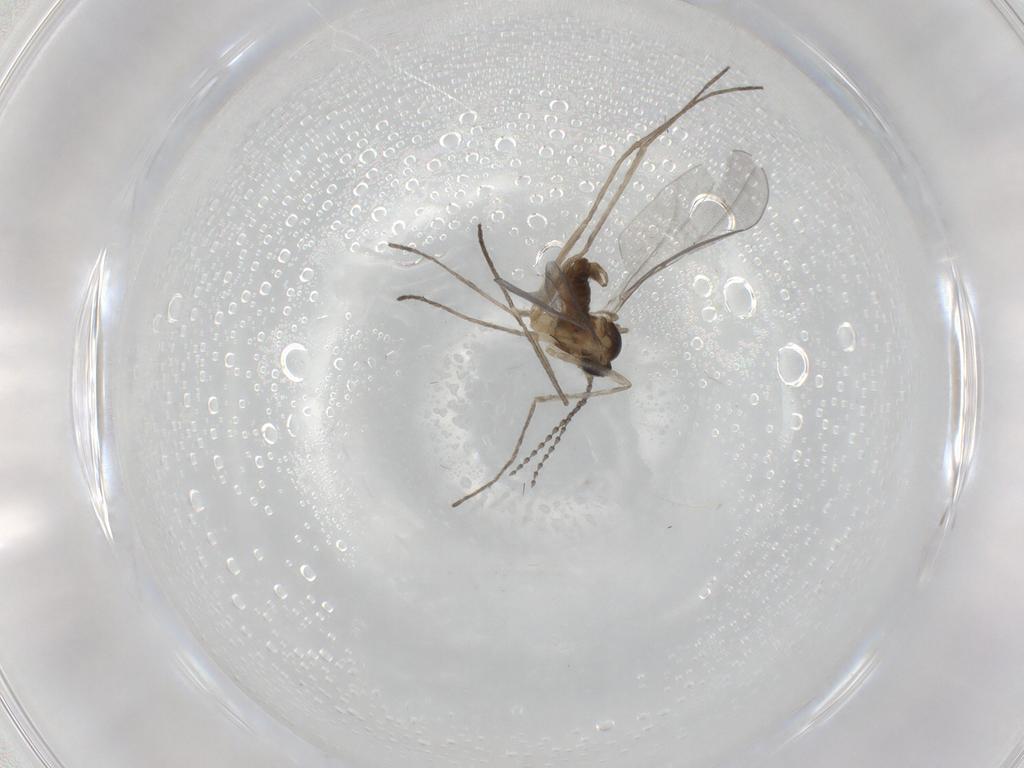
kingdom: Animalia
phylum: Arthropoda
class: Insecta
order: Diptera
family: Cecidomyiidae
